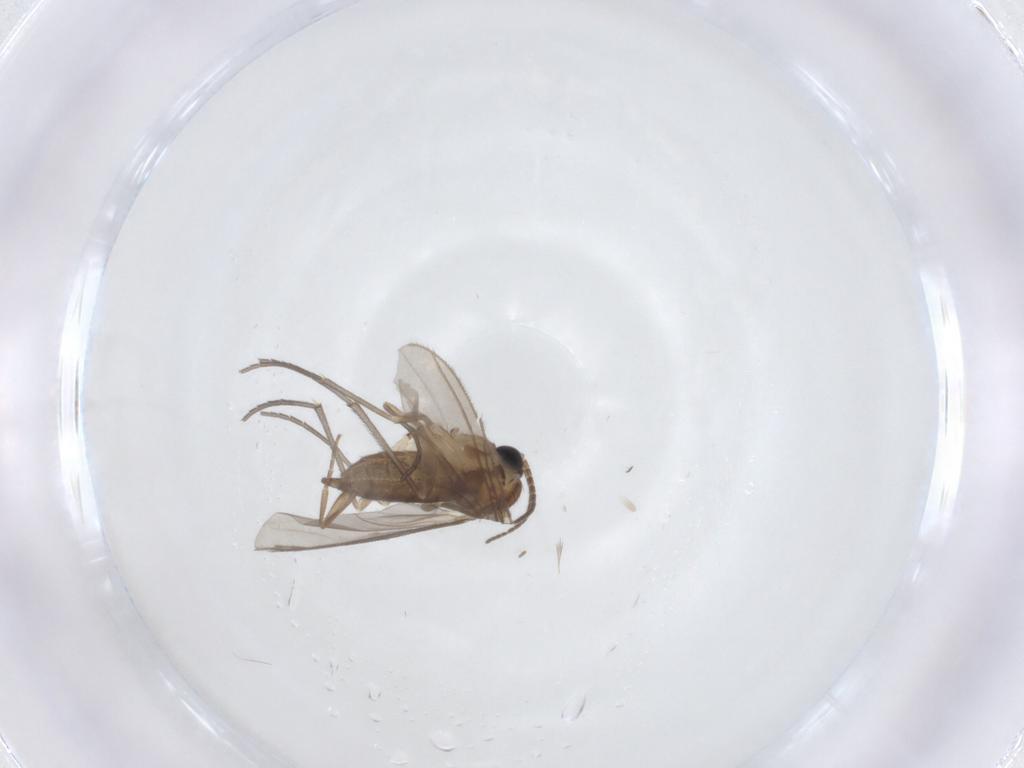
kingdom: Animalia
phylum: Arthropoda
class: Insecta
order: Diptera
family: Sciaridae
